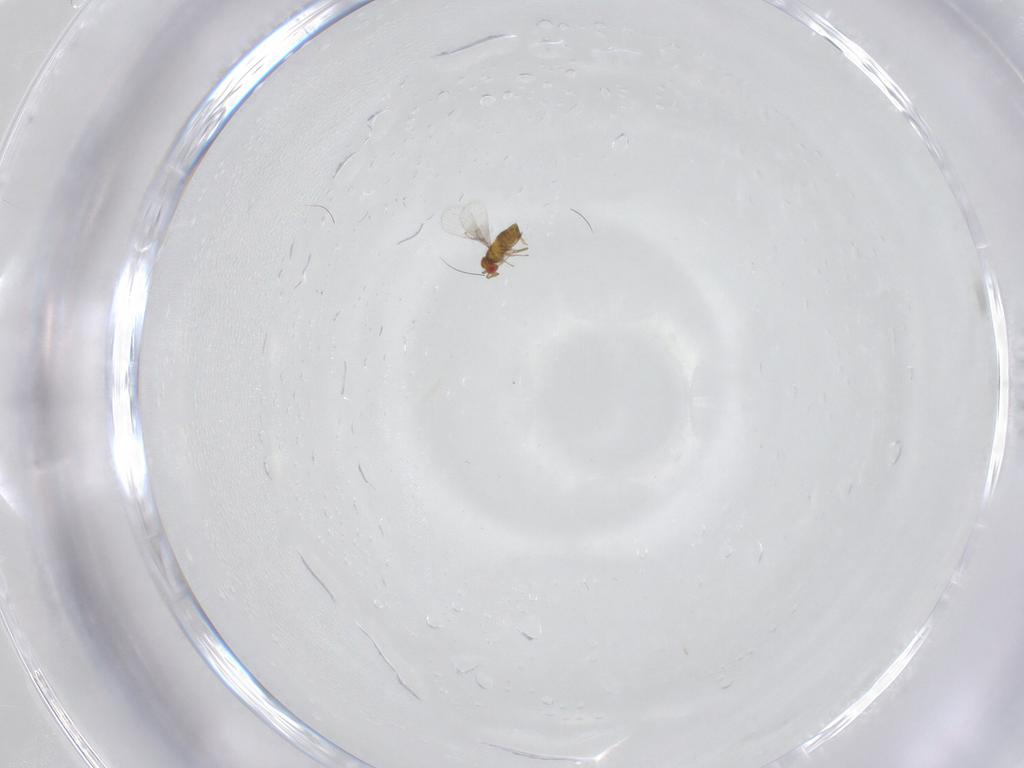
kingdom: Animalia
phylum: Arthropoda
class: Insecta
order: Hymenoptera
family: Trichogrammatidae
